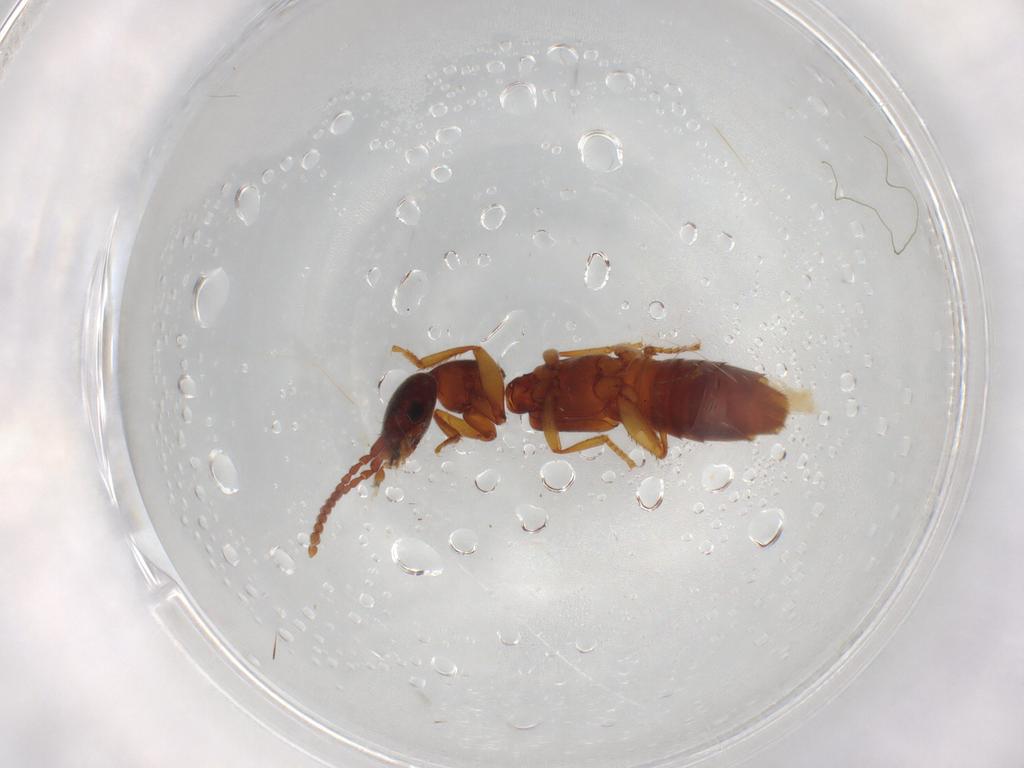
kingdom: Animalia
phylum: Arthropoda
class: Insecta
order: Coleoptera
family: Staphylinidae
